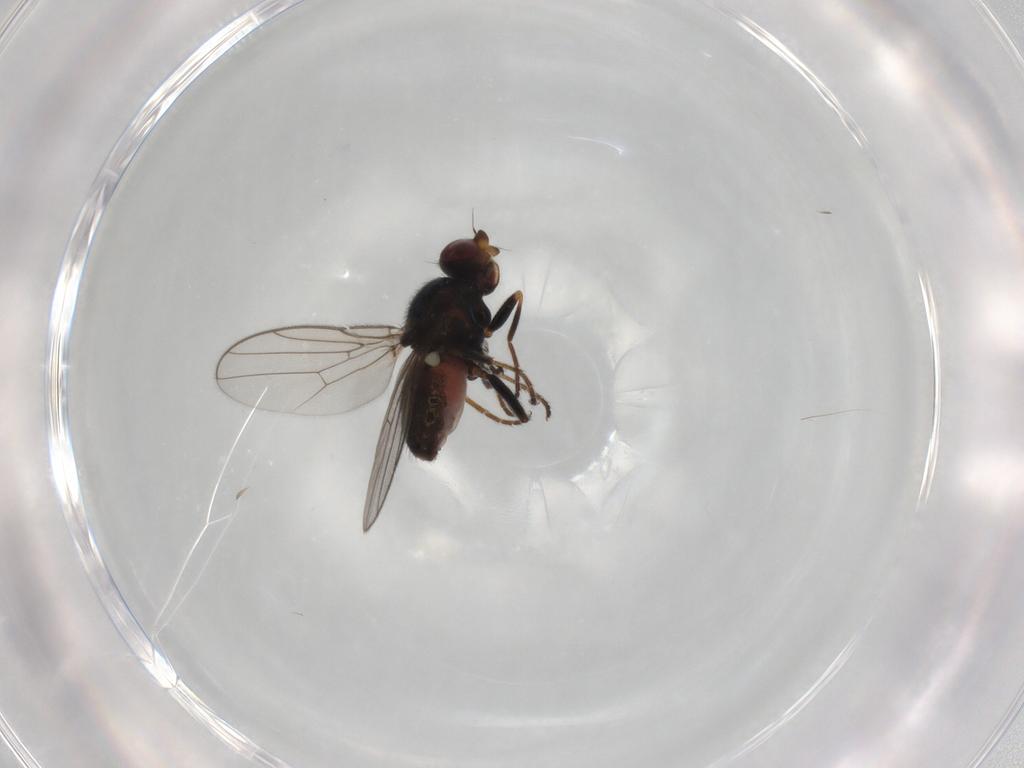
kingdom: Animalia
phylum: Arthropoda
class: Insecta
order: Diptera
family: Chloropidae
